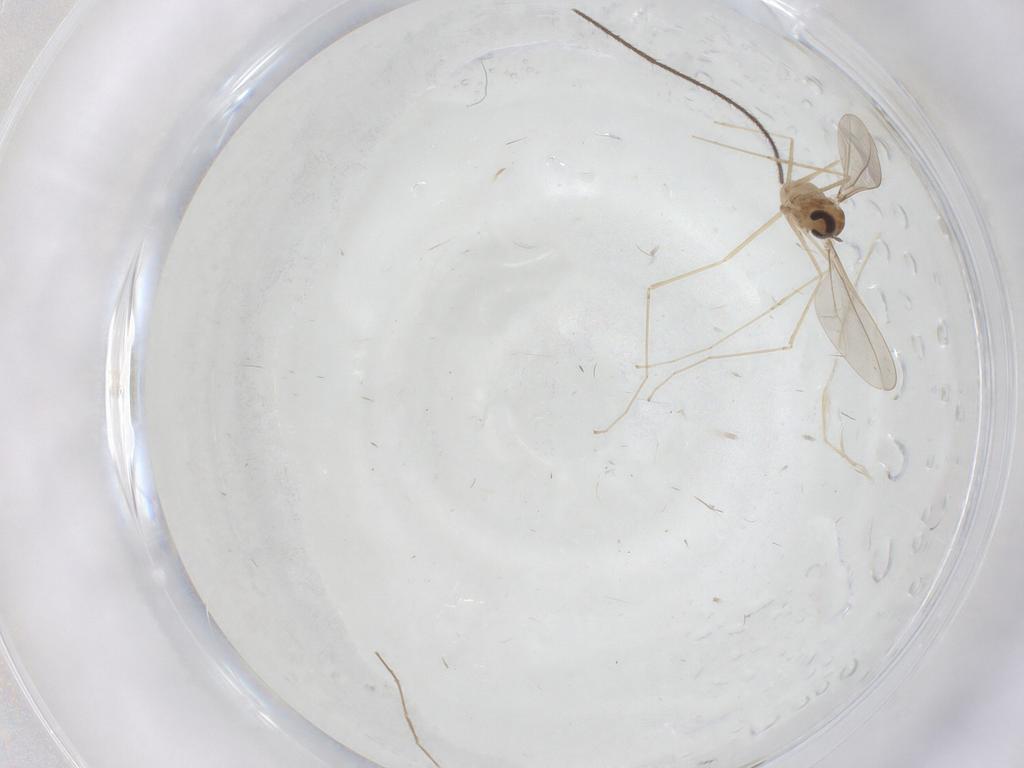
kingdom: Animalia
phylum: Arthropoda
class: Insecta
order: Diptera
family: Cecidomyiidae
